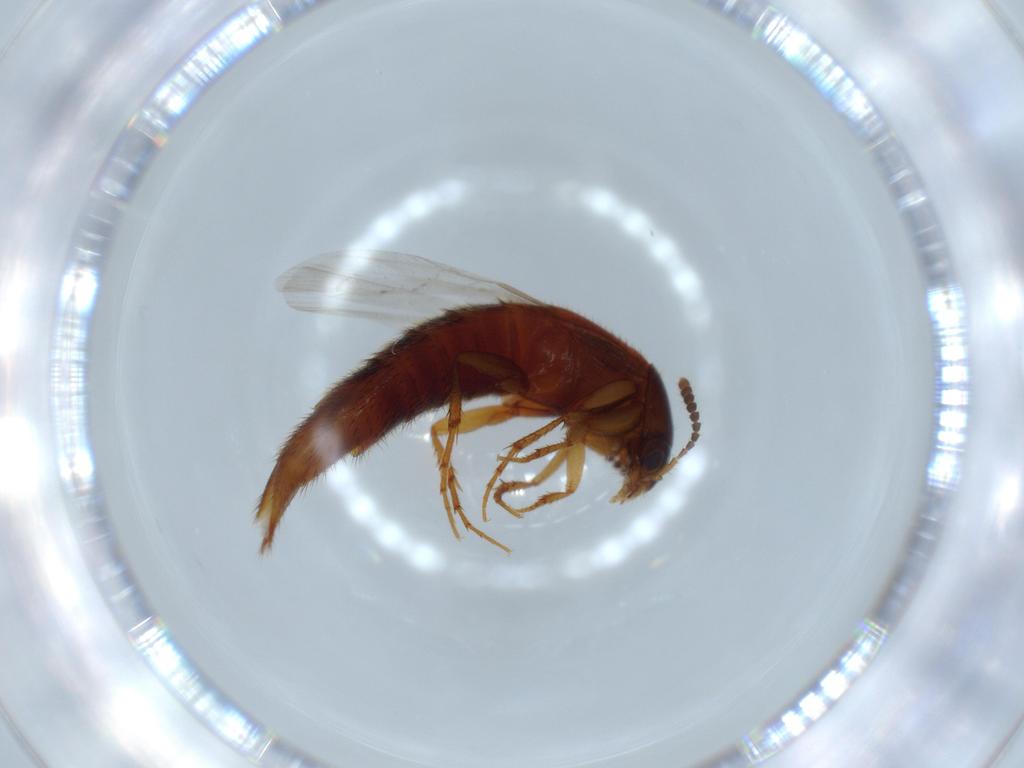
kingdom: Animalia
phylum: Arthropoda
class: Insecta
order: Coleoptera
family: Staphylinidae
